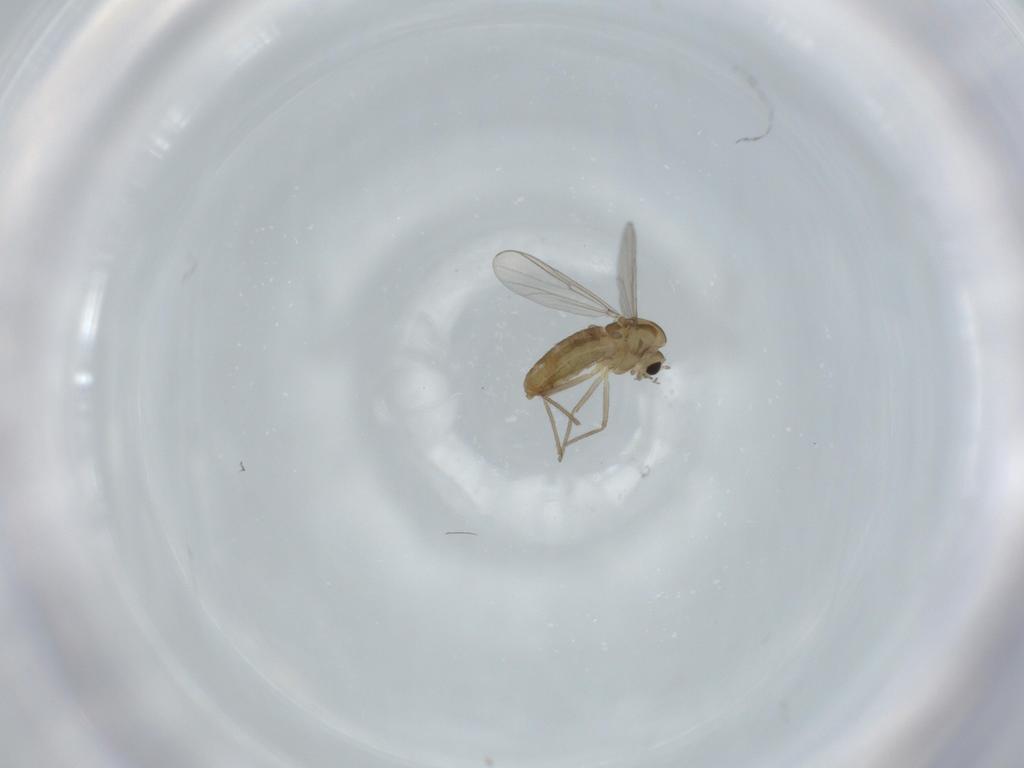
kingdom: Animalia
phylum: Arthropoda
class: Insecta
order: Diptera
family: Chironomidae
